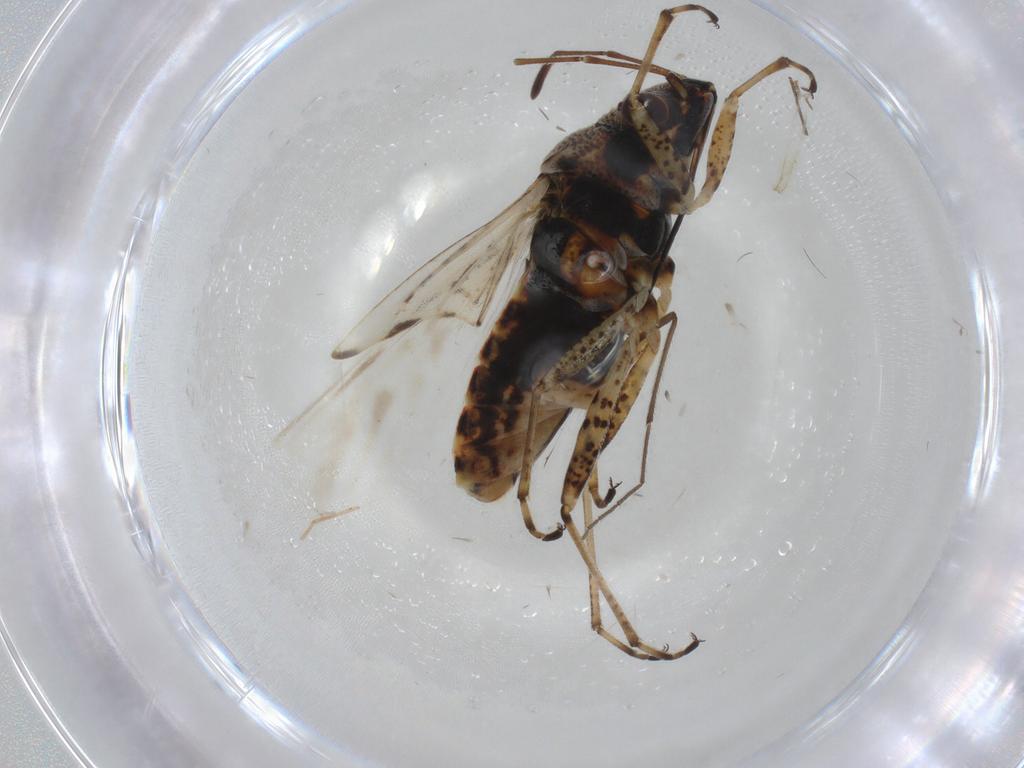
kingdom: Animalia
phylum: Arthropoda
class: Insecta
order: Hemiptera
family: Lygaeidae
